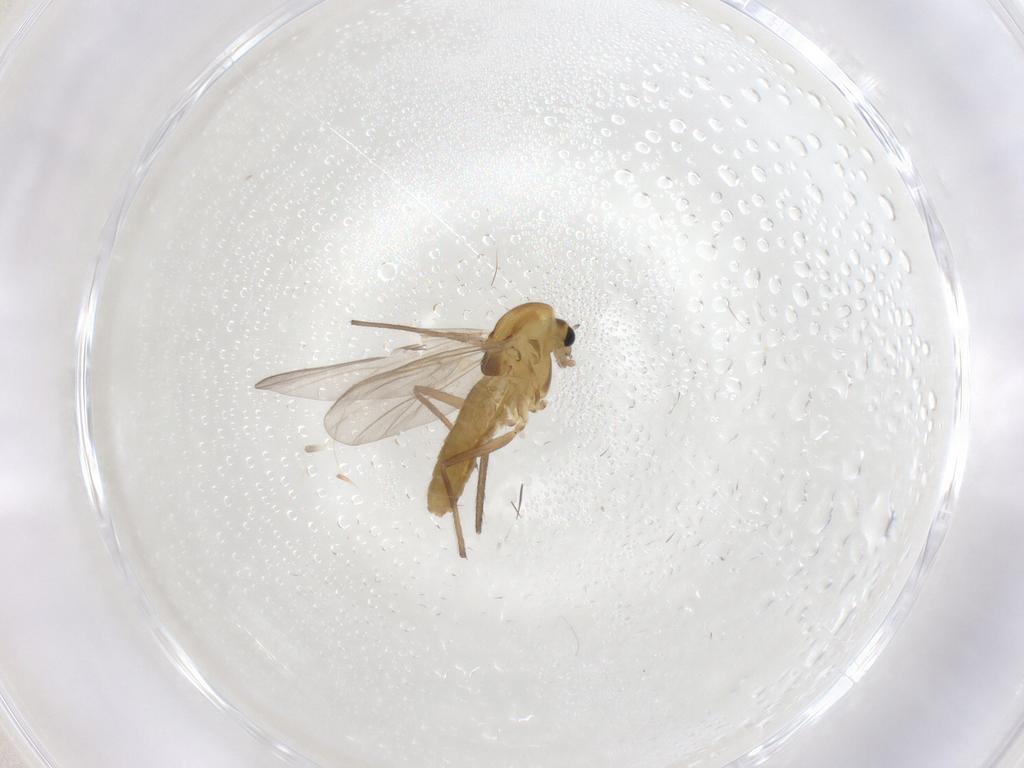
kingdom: Animalia
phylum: Arthropoda
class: Insecta
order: Diptera
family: Chironomidae
